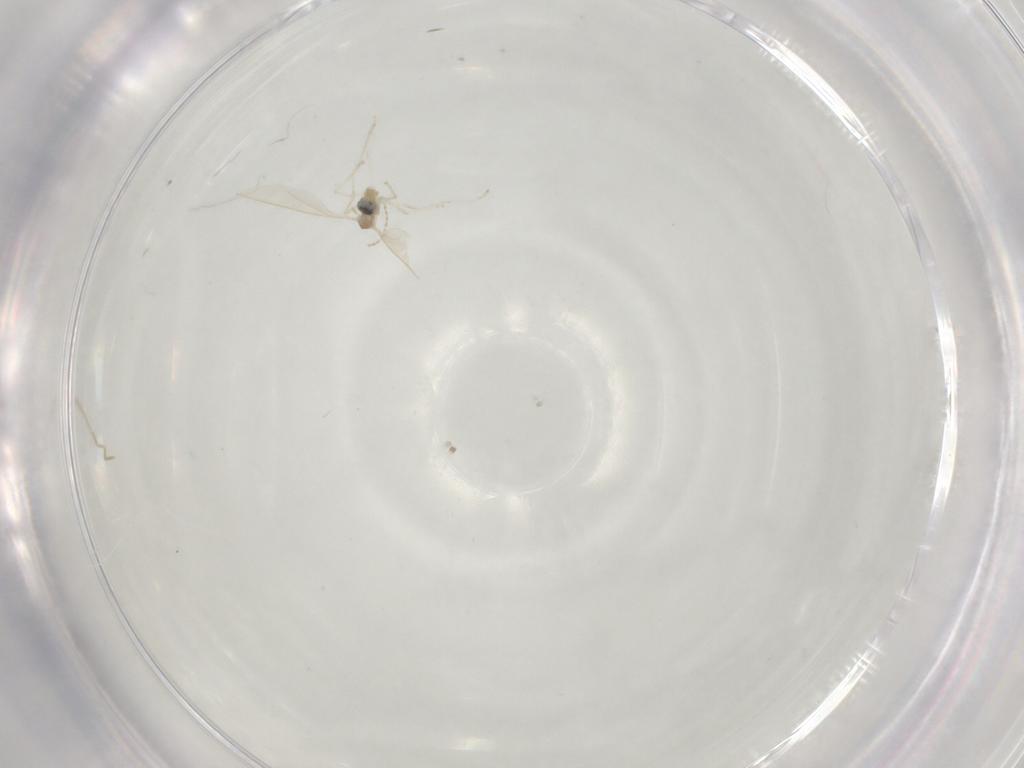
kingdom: Animalia
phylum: Arthropoda
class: Insecta
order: Diptera
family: Cecidomyiidae
